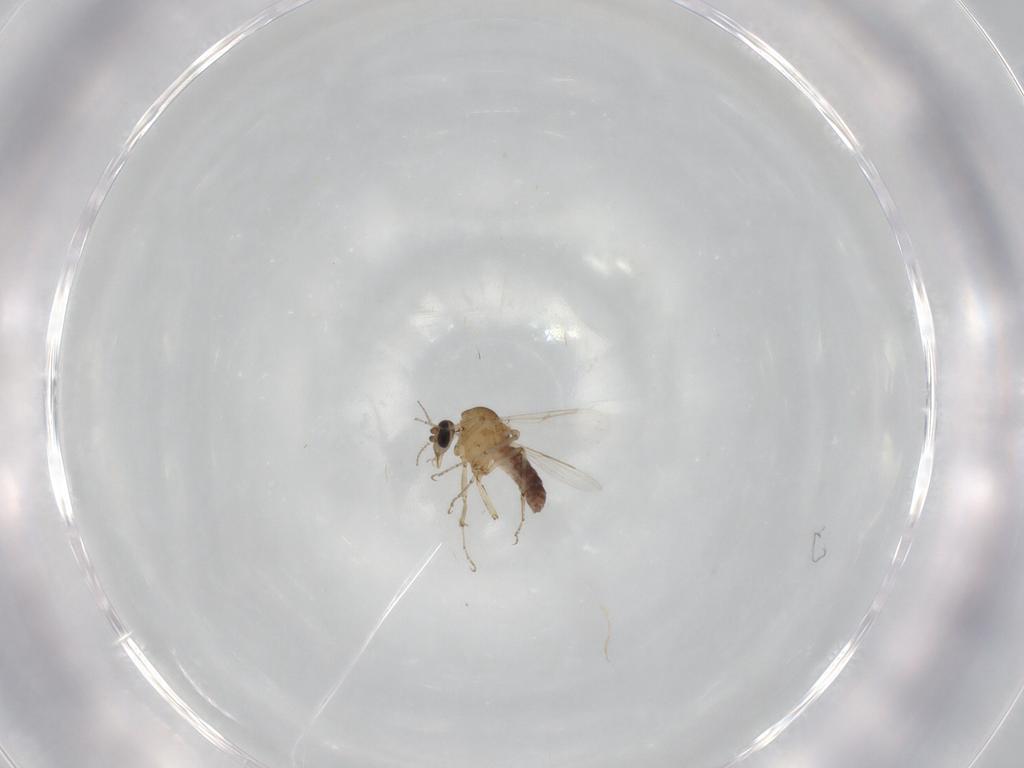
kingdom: Animalia
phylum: Arthropoda
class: Insecta
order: Diptera
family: Ceratopogonidae
